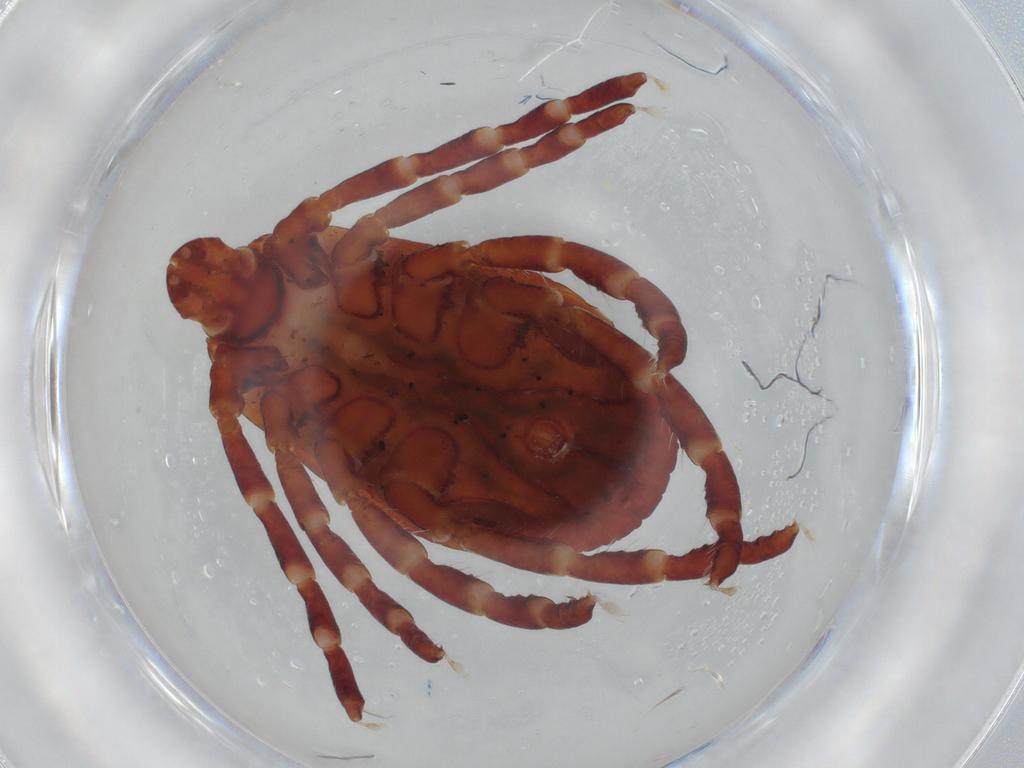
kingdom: Animalia
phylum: Arthropoda
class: Arachnida
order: Ixodida
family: Ixodidae
